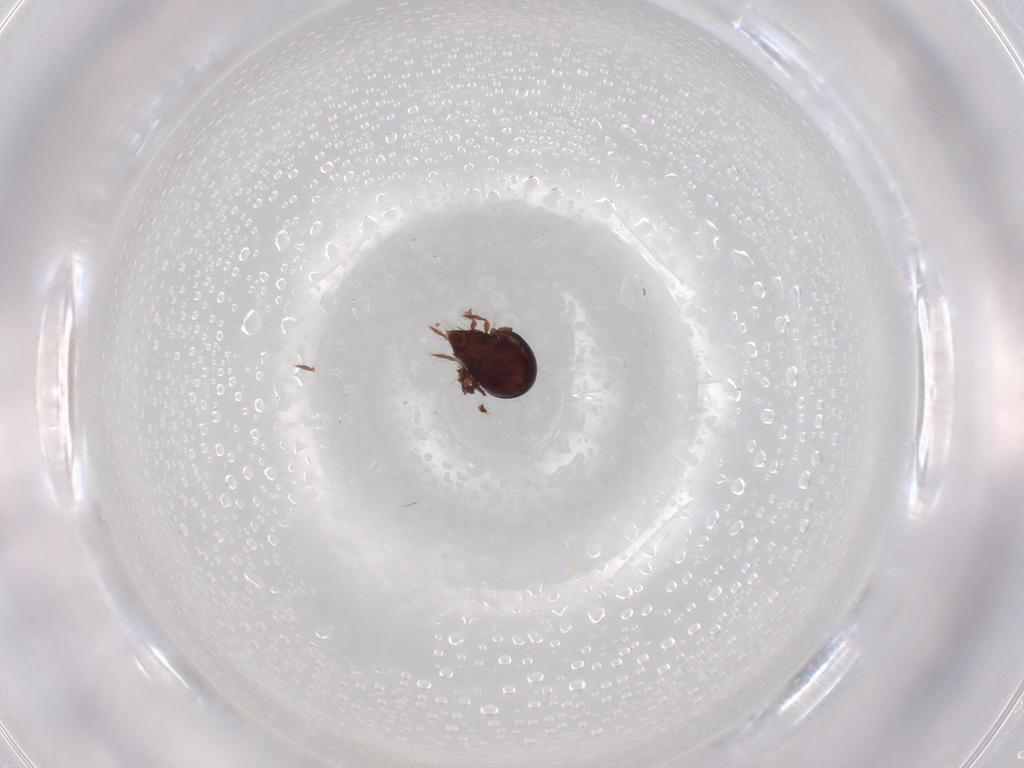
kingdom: Animalia
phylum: Arthropoda
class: Arachnida
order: Sarcoptiformes
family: Ceratoppiidae
